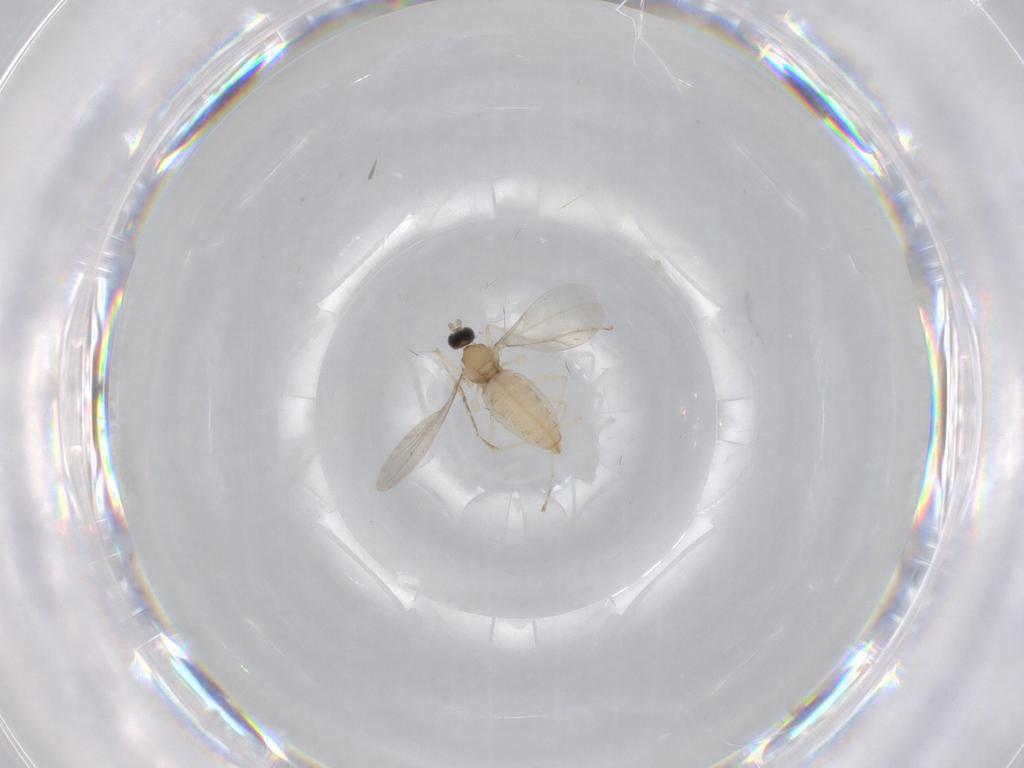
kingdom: Animalia
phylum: Arthropoda
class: Insecta
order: Diptera
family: Cecidomyiidae
